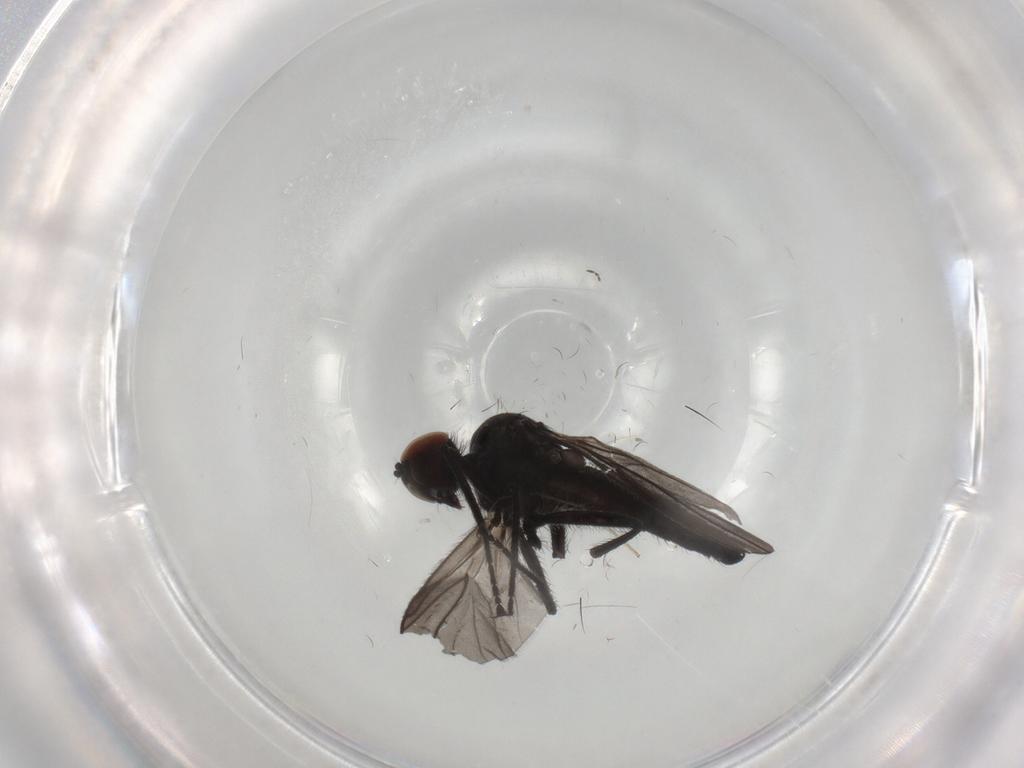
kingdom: Animalia
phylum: Arthropoda
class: Insecta
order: Diptera
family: Hybotidae
